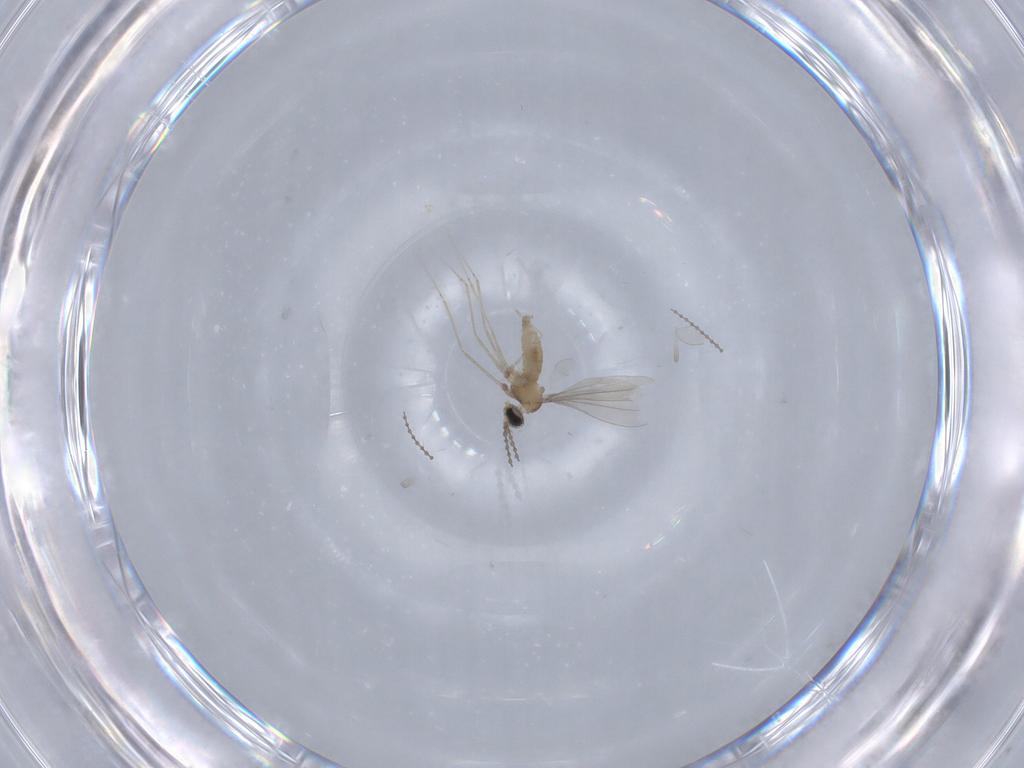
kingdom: Animalia
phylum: Arthropoda
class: Insecta
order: Diptera
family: Cecidomyiidae
